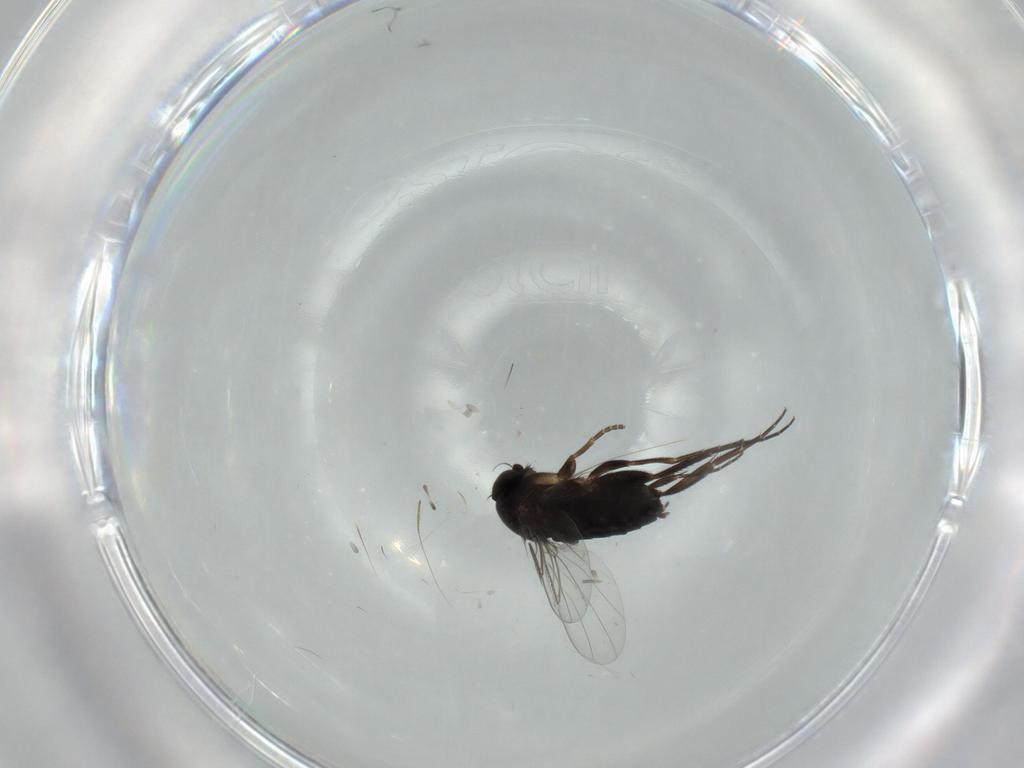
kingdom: Animalia
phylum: Arthropoda
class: Insecta
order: Diptera
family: Phoridae
